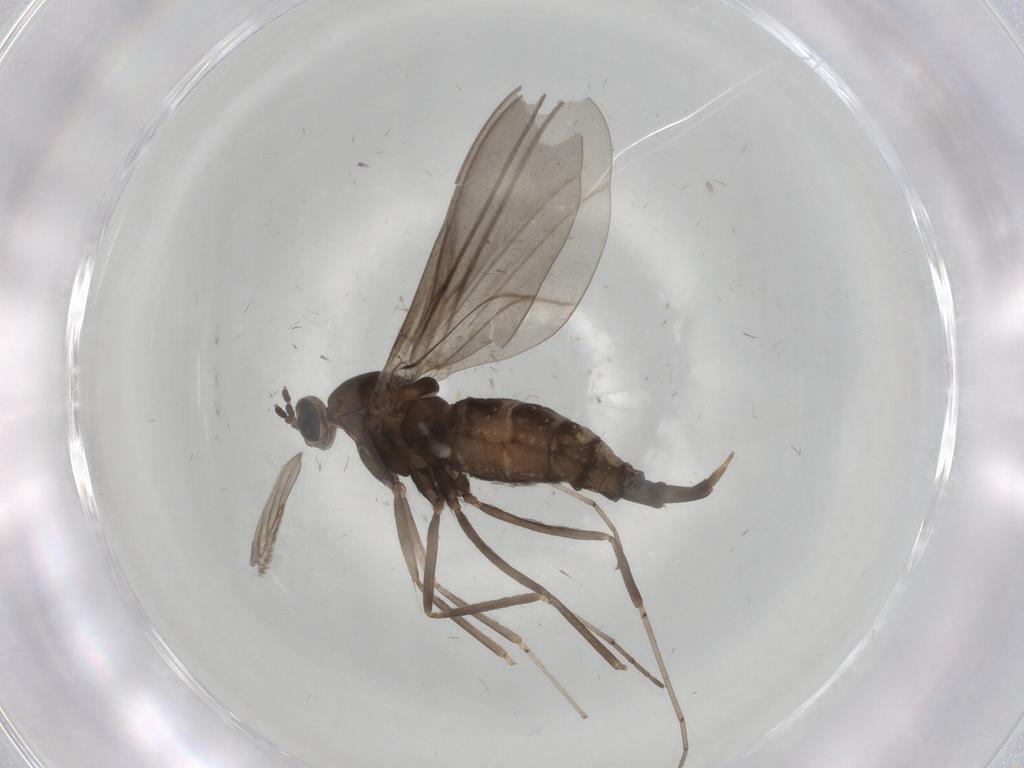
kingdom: Animalia
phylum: Arthropoda
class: Insecta
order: Diptera
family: Cecidomyiidae
